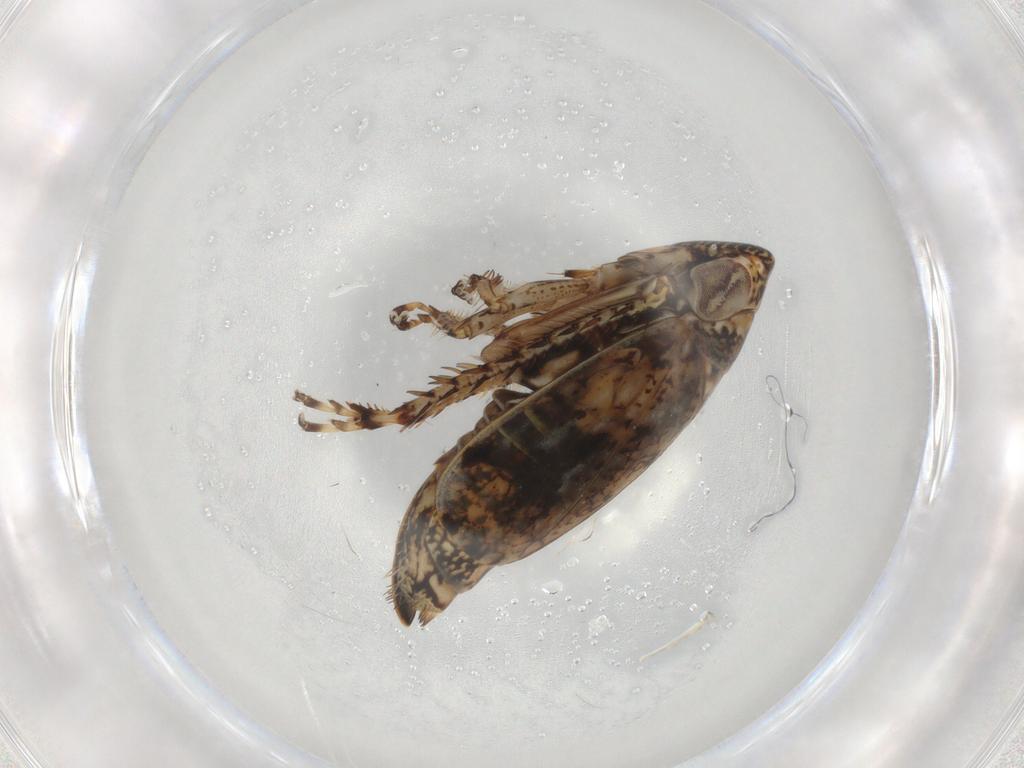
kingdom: Animalia
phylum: Arthropoda
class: Insecta
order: Hemiptera
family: Cicadellidae
